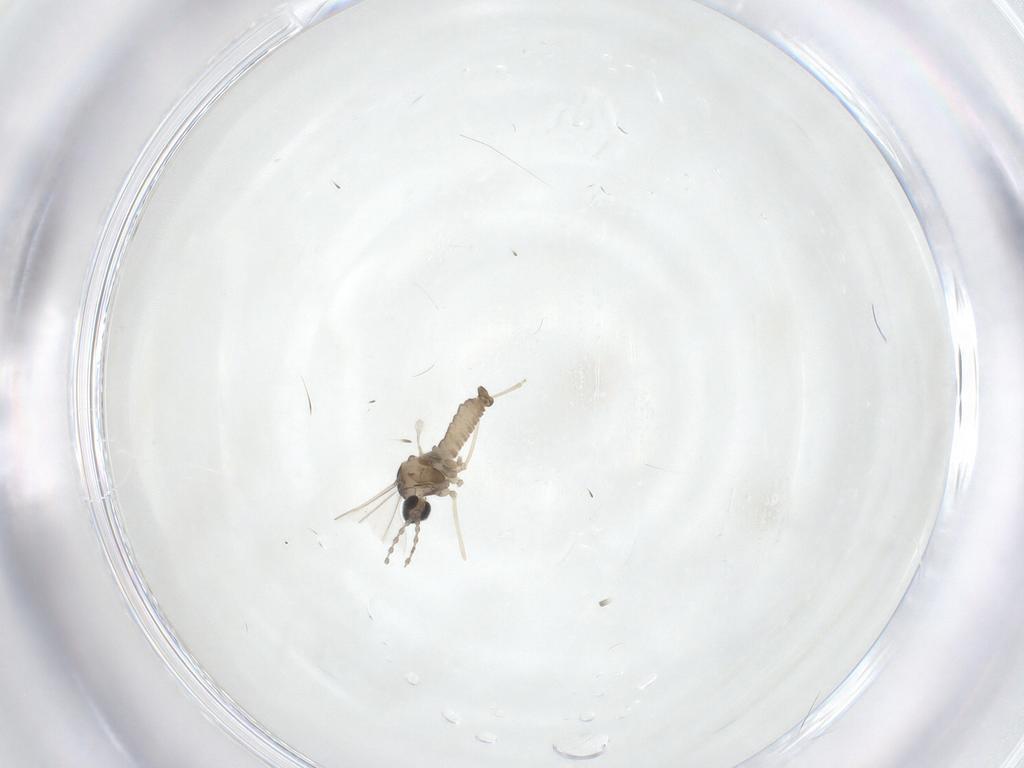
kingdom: Animalia
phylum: Arthropoda
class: Insecta
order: Diptera
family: Cecidomyiidae
